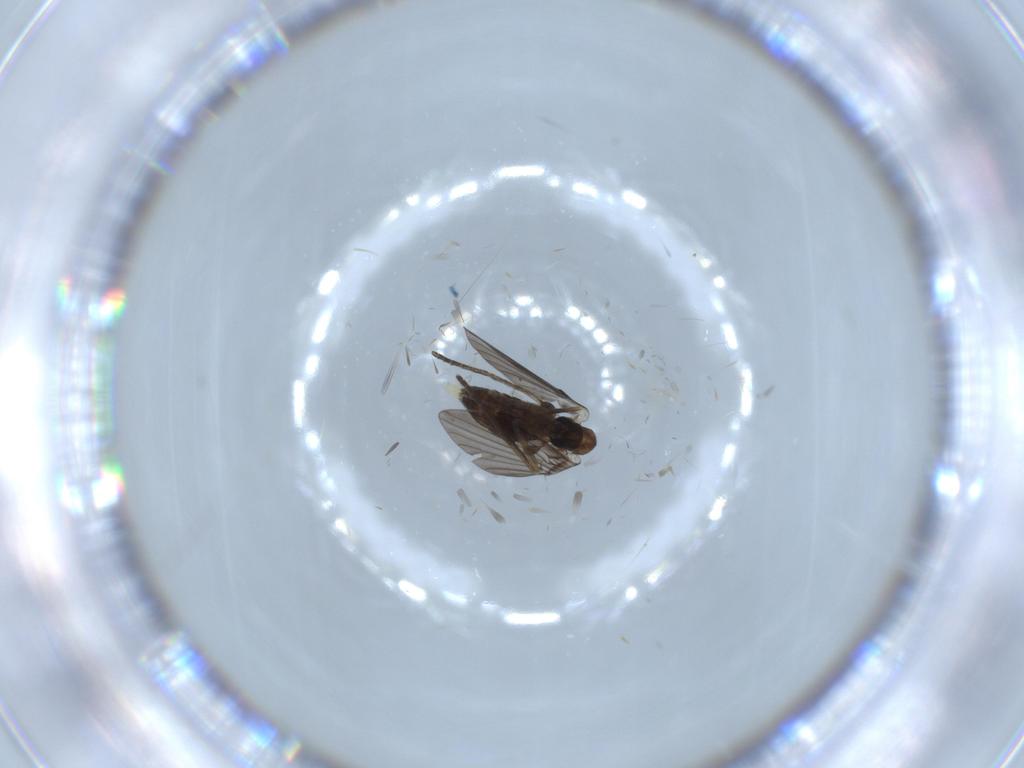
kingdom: Animalia
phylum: Arthropoda
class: Insecta
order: Diptera
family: Psychodidae
